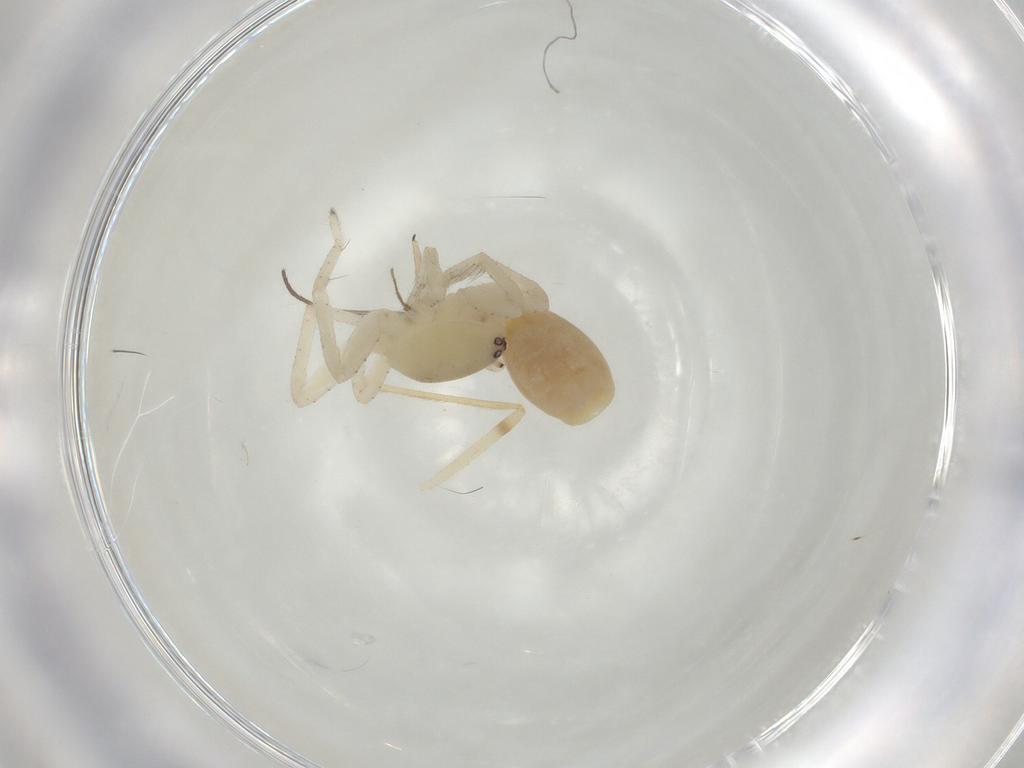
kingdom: Animalia
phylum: Arthropoda
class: Arachnida
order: Araneae
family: Clubionidae
